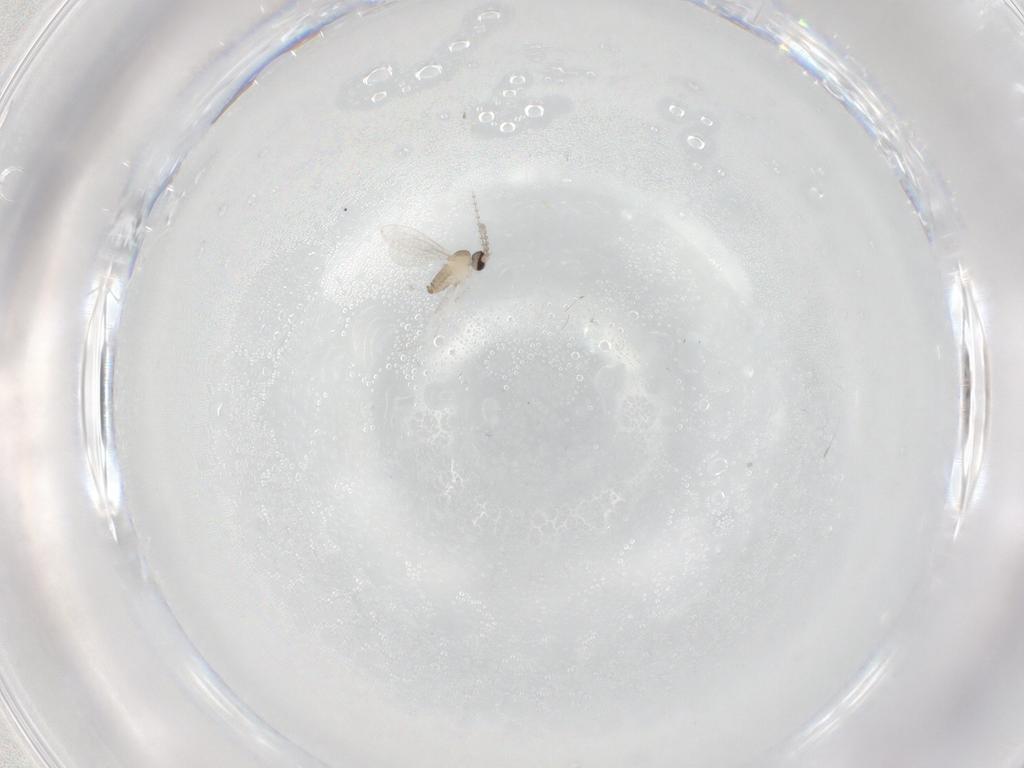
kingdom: Animalia
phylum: Arthropoda
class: Insecta
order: Diptera
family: Cecidomyiidae
